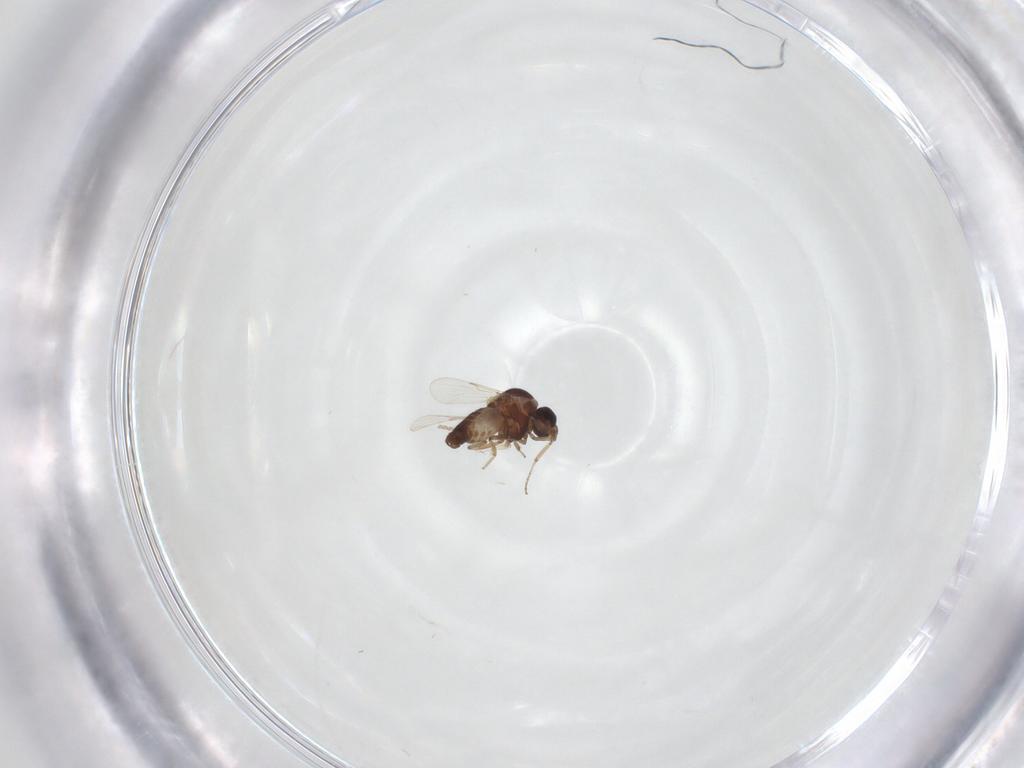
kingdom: Animalia
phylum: Arthropoda
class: Insecta
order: Diptera
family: Ceratopogonidae
